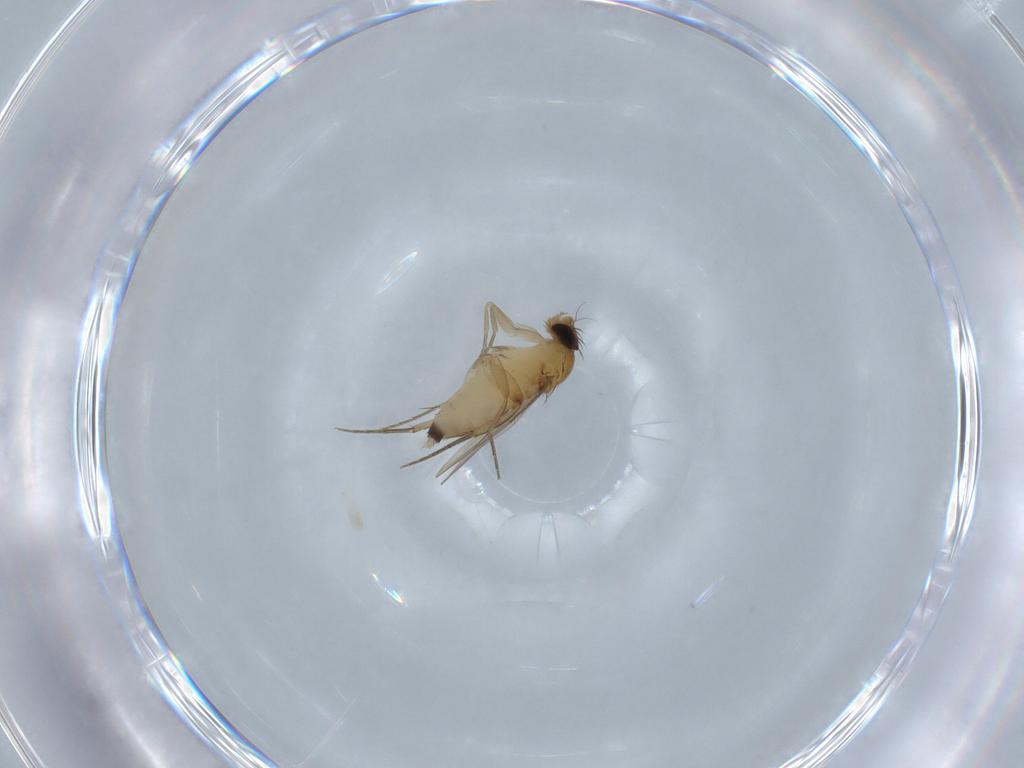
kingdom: Animalia
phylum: Arthropoda
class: Insecta
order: Diptera
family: Phoridae
